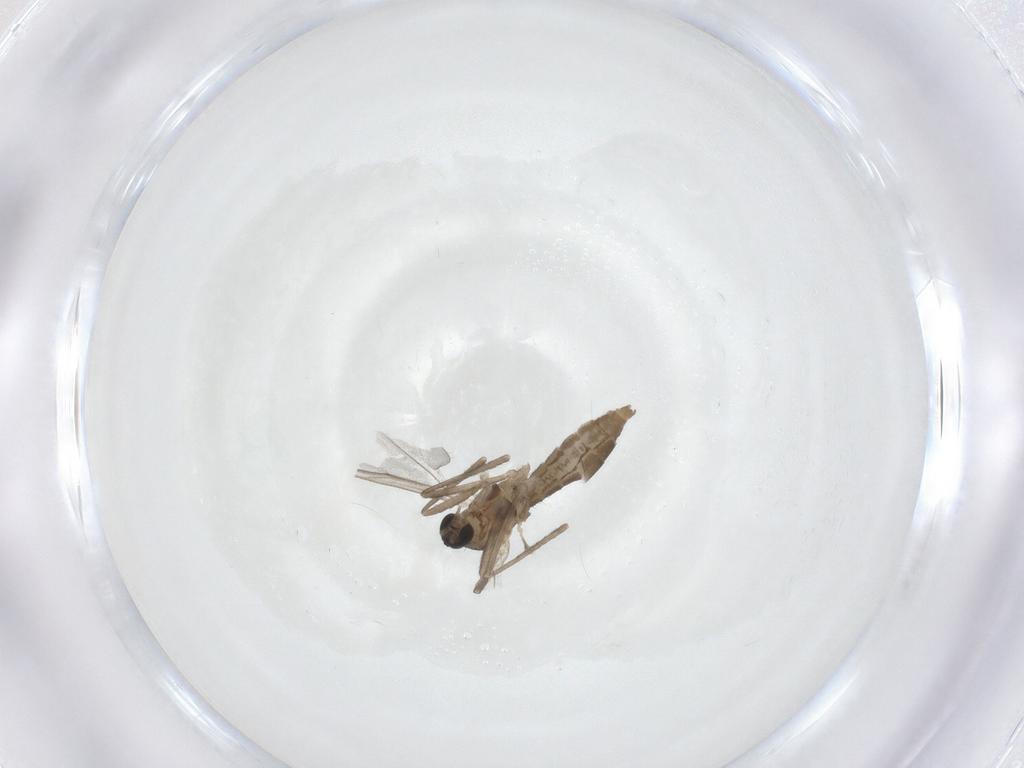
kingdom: Animalia
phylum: Arthropoda
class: Insecta
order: Diptera
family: Cecidomyiidae
